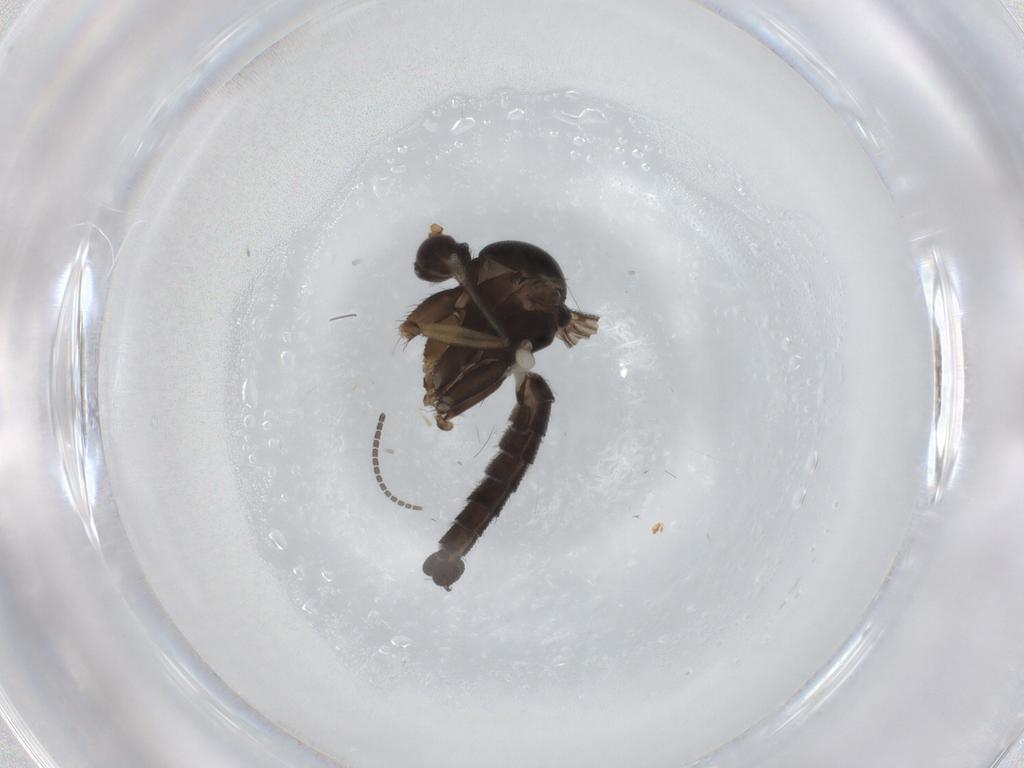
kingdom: Animalia
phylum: Arthropoda
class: Insecta
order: Diptera
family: Mycetophilidae
